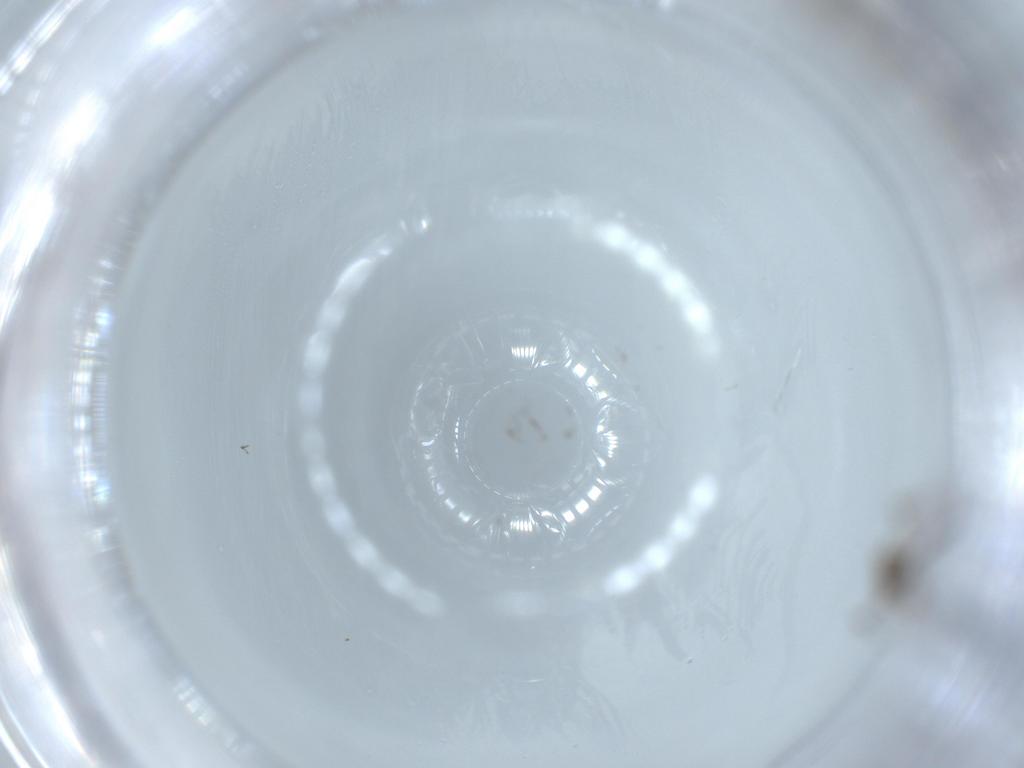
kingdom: Animalia
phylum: Arthropoda
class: Insecta
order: Diptera
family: Chironomidae
